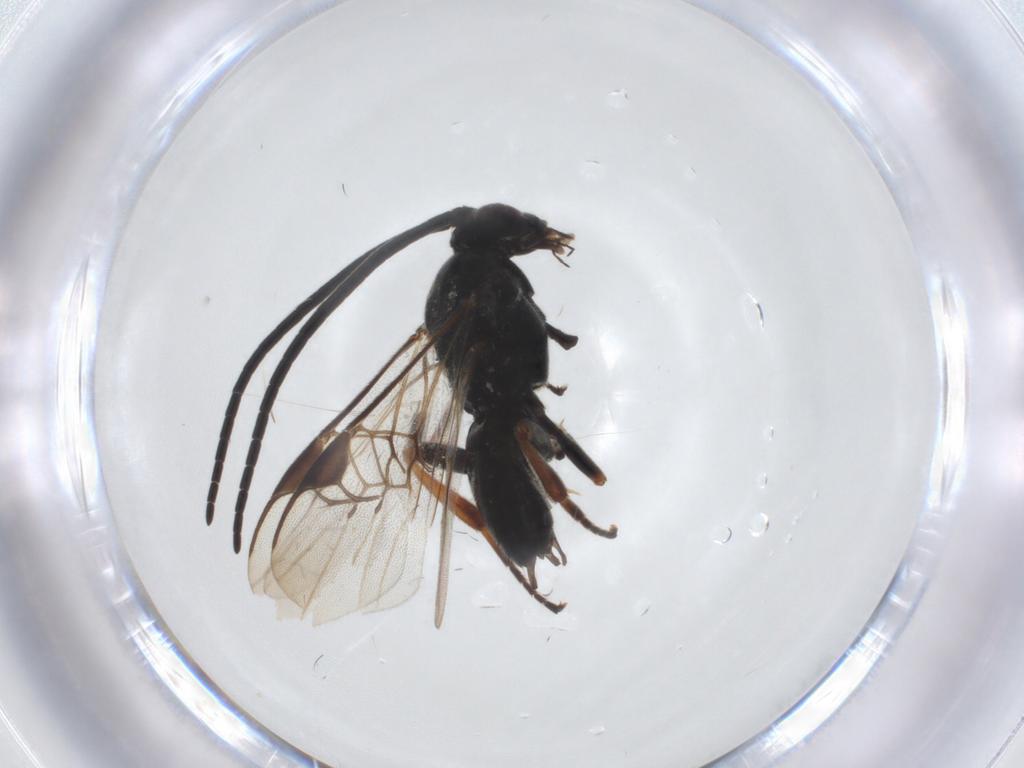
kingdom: Animalia
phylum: Arthropoda
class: Insecta
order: Hymenoptera
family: Braconidae
